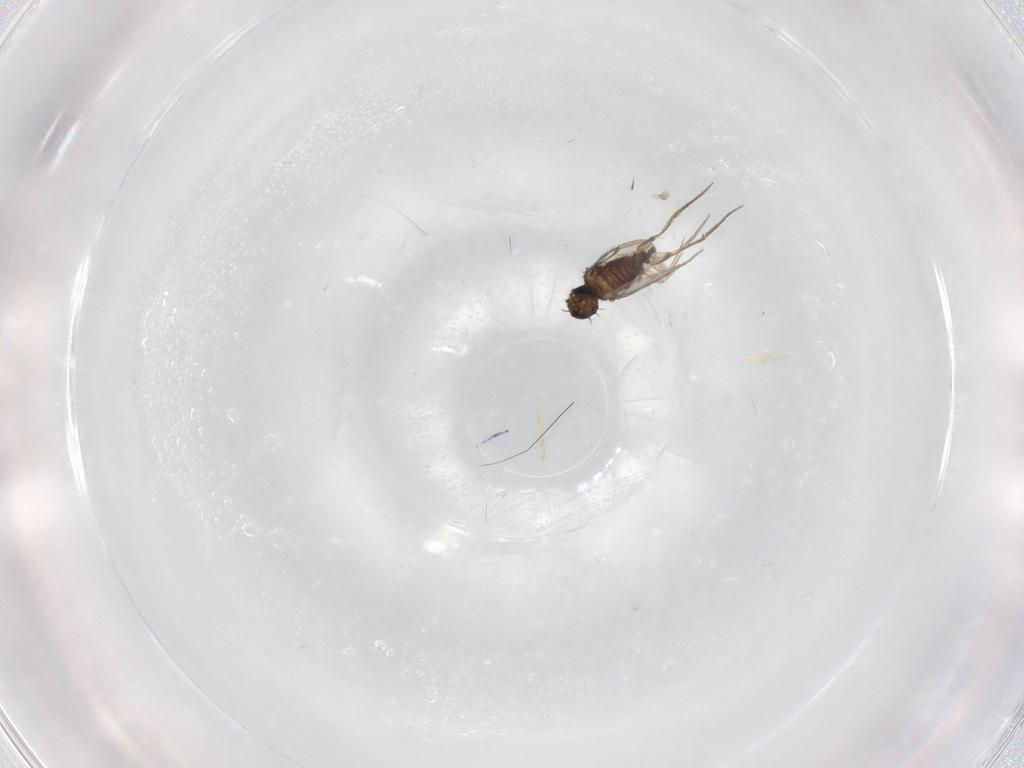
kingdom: Animalia
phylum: Arthropoda
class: Insecta
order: Diptera
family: Phoridae
